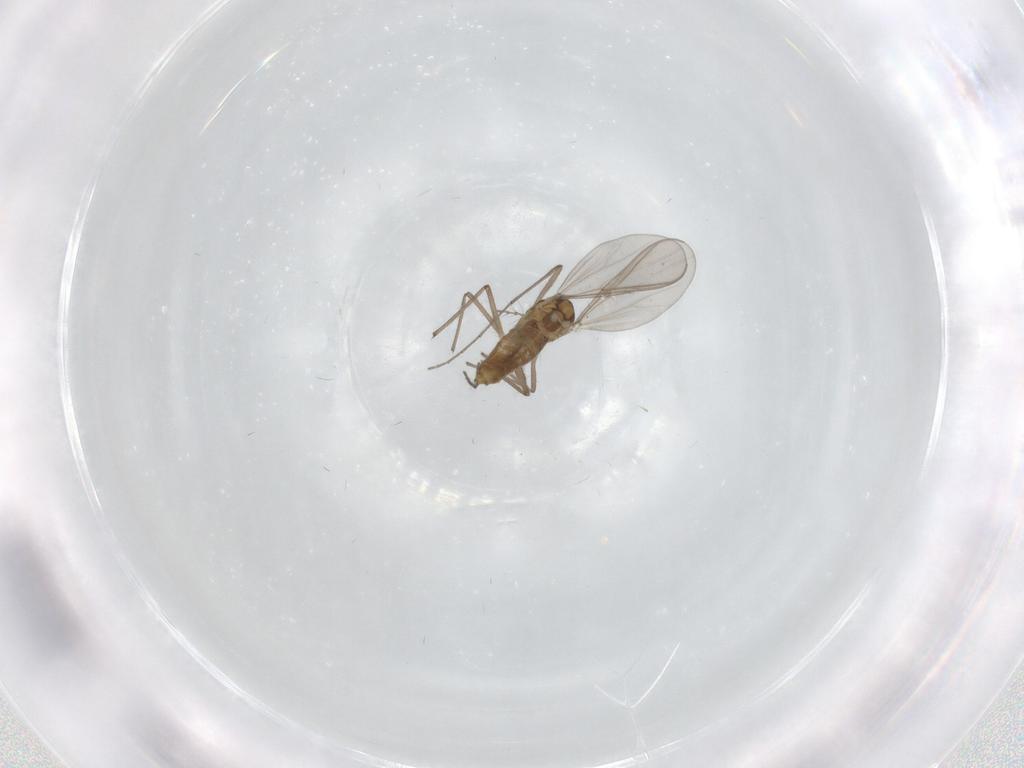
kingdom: Animalia
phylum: Arthropoda
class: Insecta
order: Diptera
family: Chironomidae
